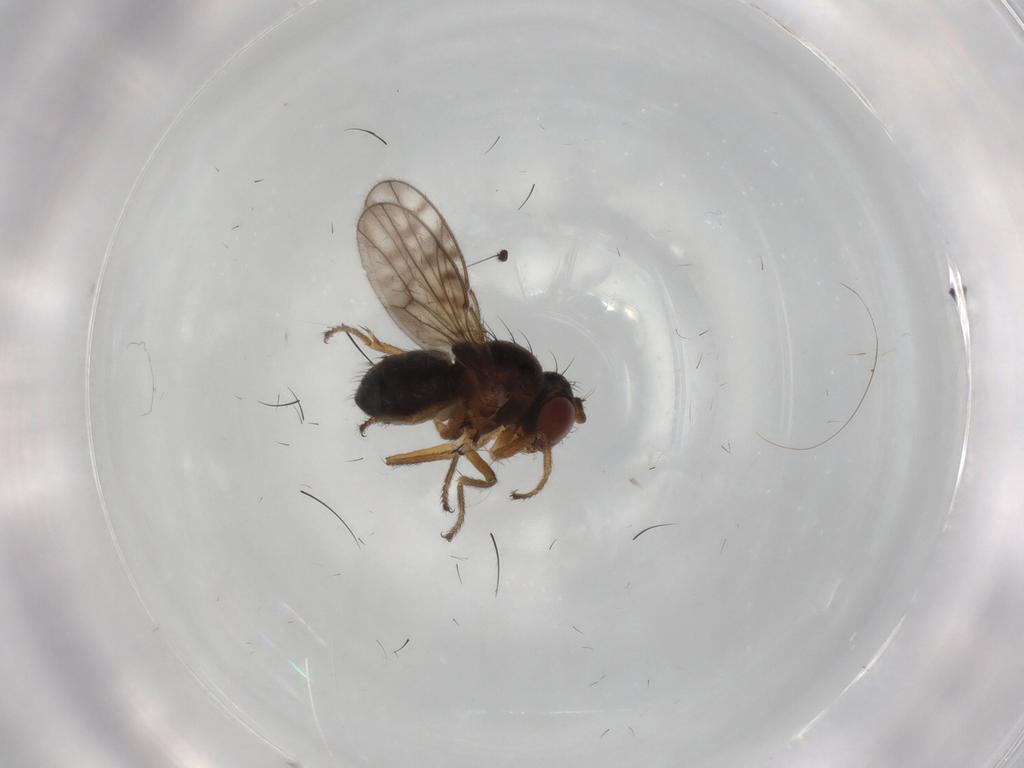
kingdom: Animalia
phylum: Arthropoda
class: Insecta
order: Diptera
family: Ephydridae
